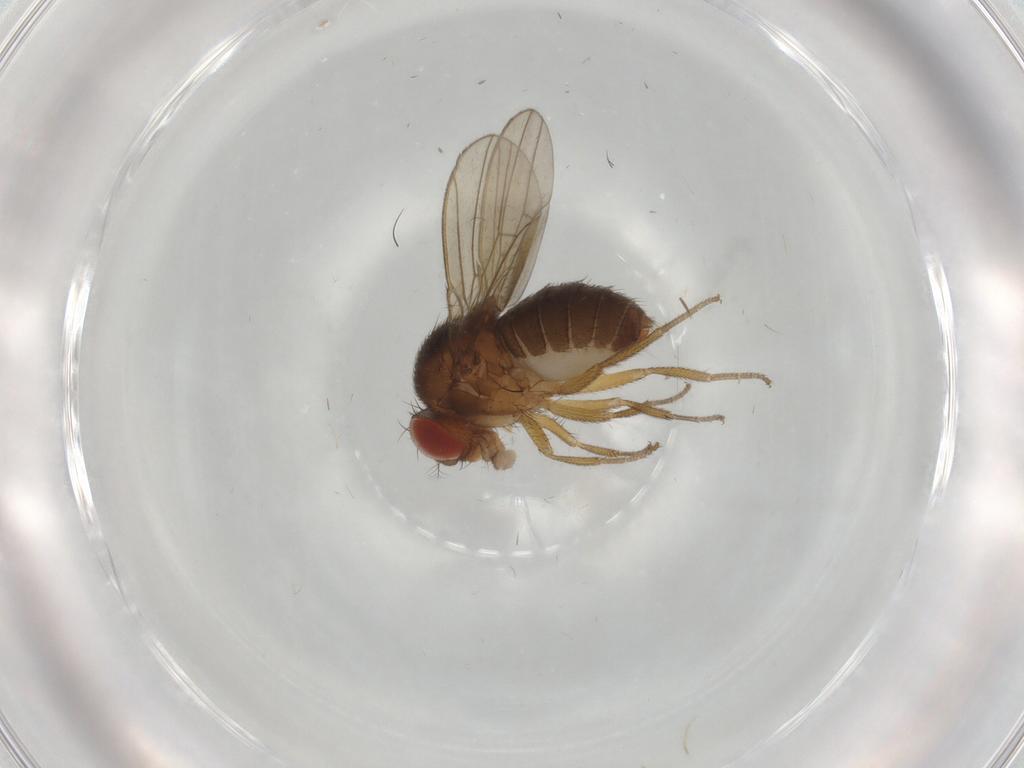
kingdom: Animalia
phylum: Arthropoda
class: Insecta
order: Diptera
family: Drosophilidae
